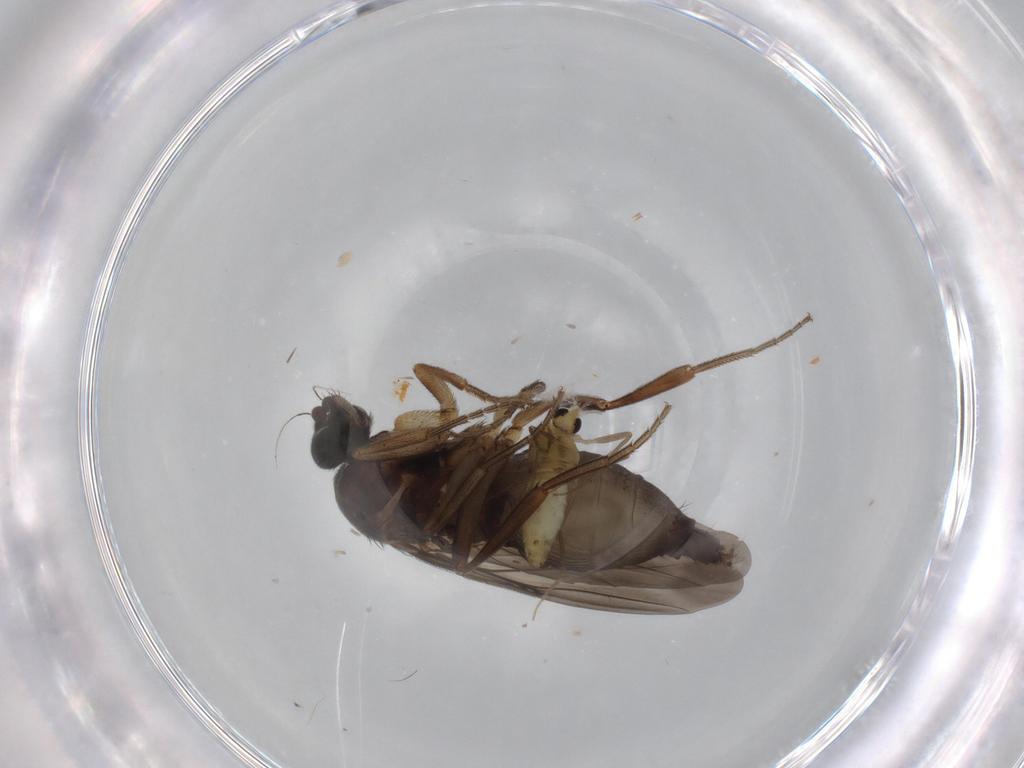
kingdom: Animalia
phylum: Arthropoda
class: Insecta
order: Diptera
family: Phoridae
